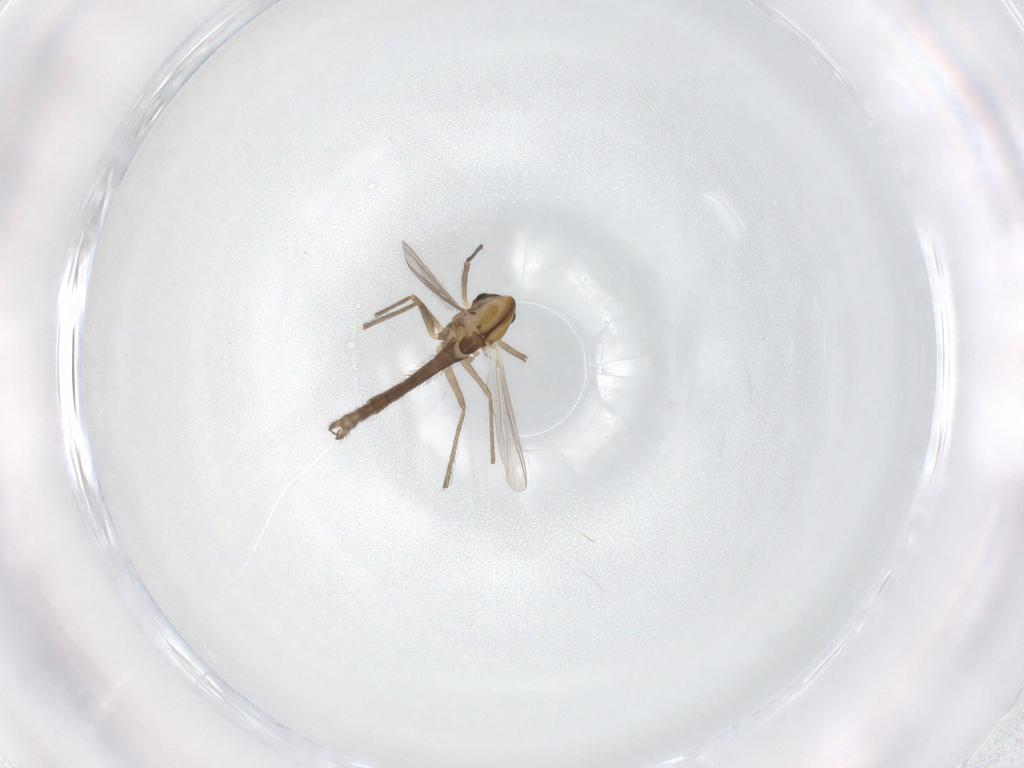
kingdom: Animalia
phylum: Arthropoda
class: Insecta
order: Diptera
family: Chironomidae
